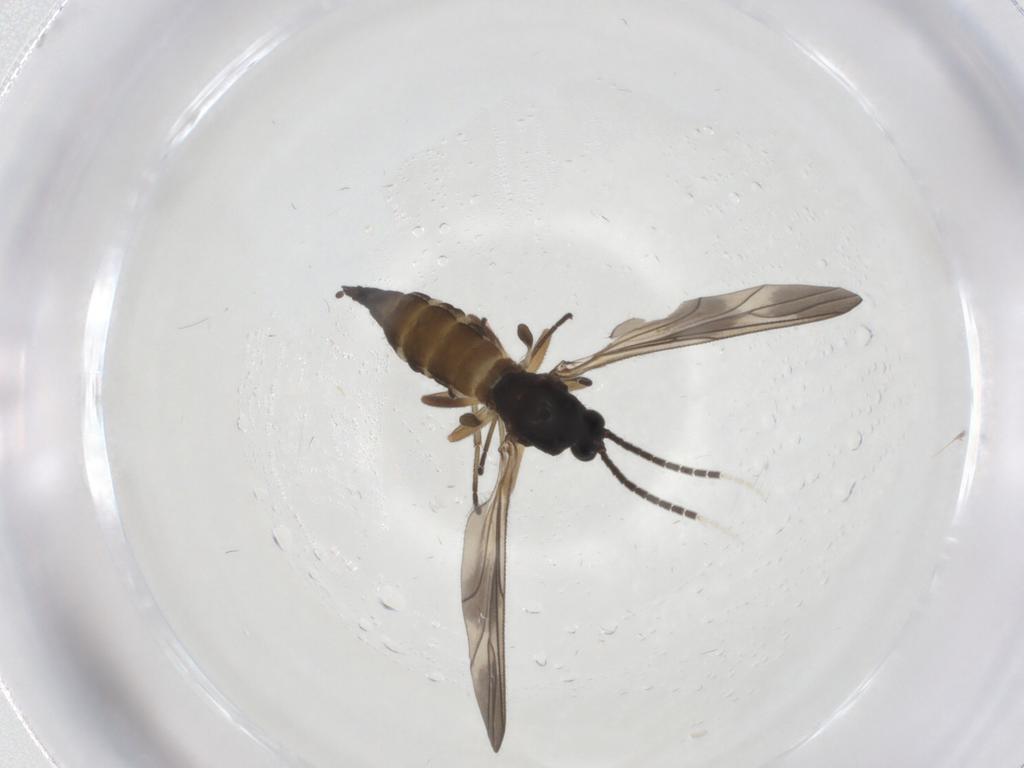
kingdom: Animalia
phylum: Arthropoda
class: Insecta
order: Diptera
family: Sciaridae
